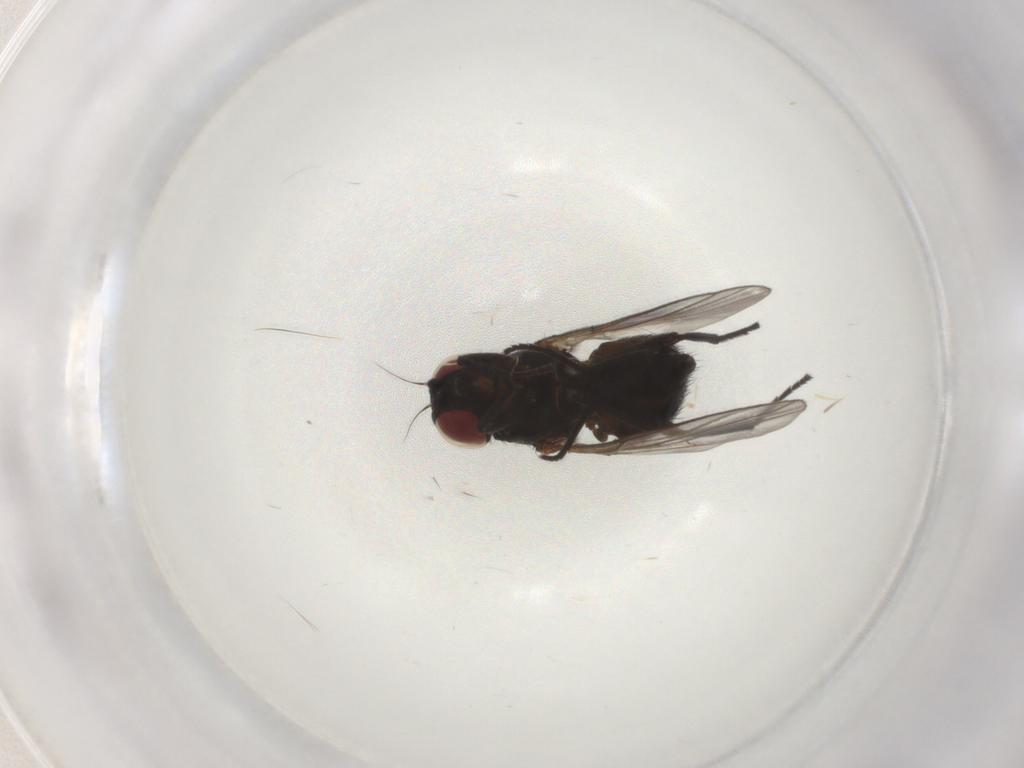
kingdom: Animalia
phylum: Arthropoda
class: Insecta
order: Diptera
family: Agromyzidae
